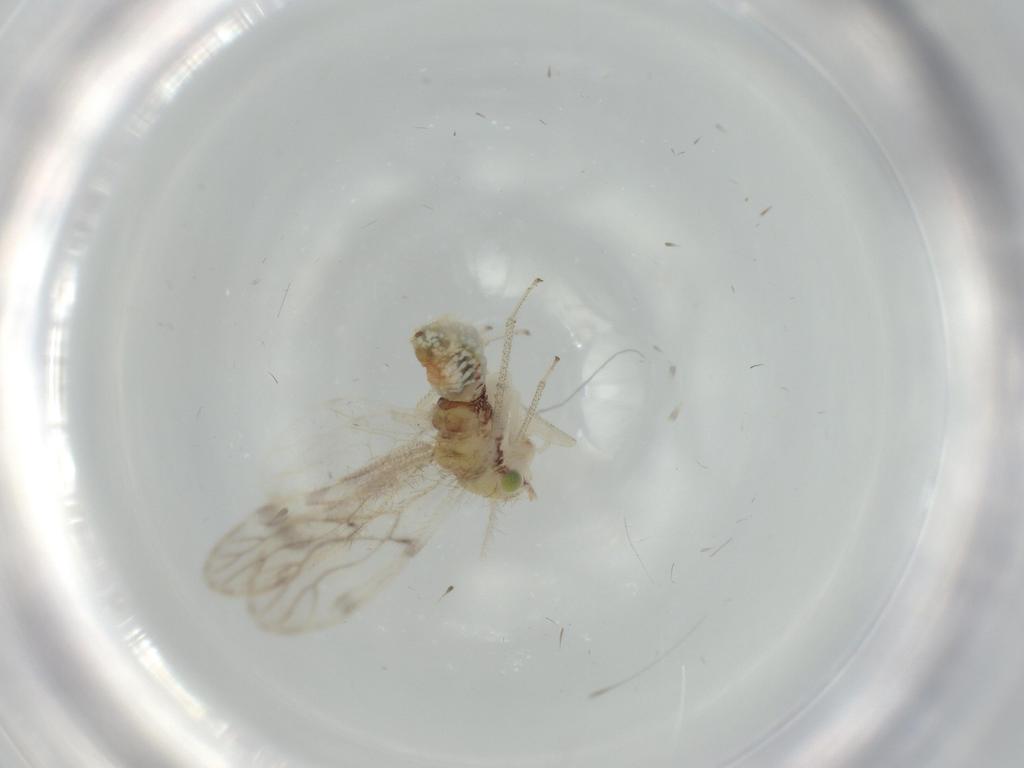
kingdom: Animalia
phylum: Arthropoda
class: Insecta
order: Psocodea
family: Pseudocaeciliidae
